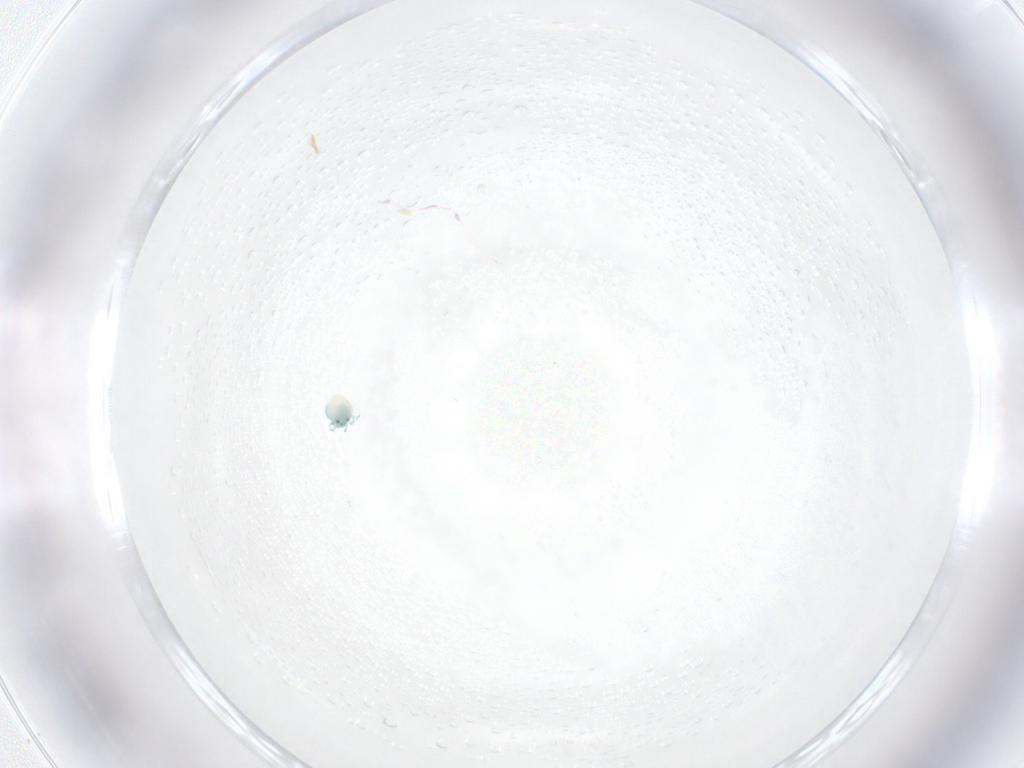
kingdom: Animalia
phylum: Arthropoda
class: Arachnida
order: Trombidiformes
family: Arrenuridae
